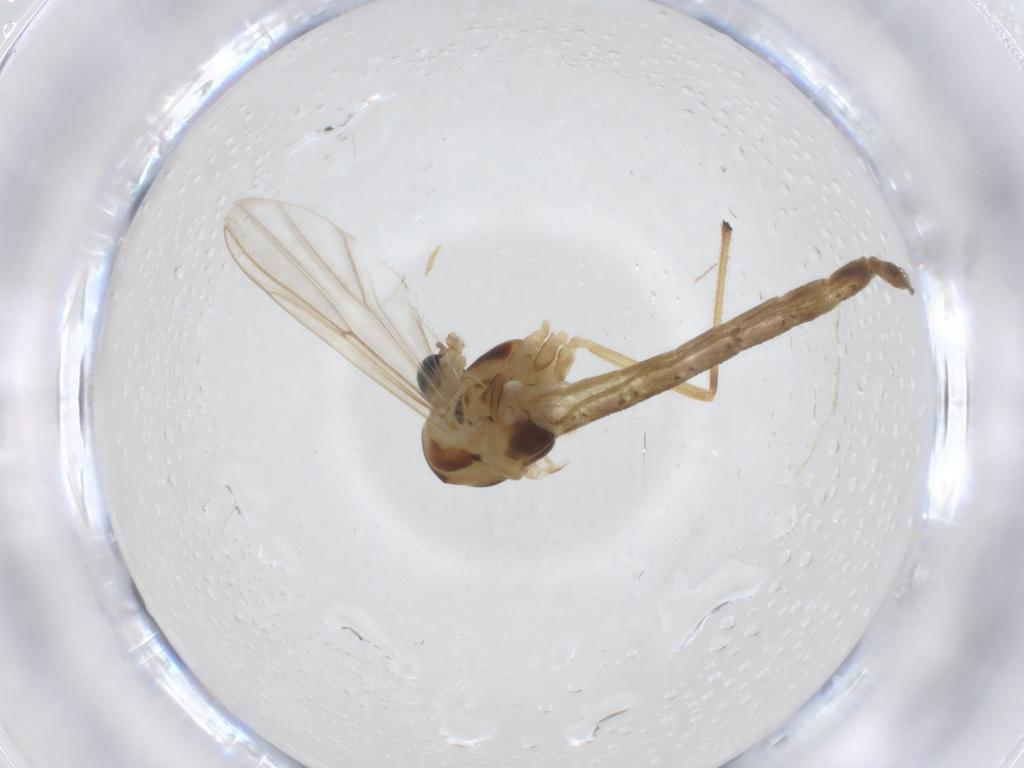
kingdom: Animalia
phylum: Arthropoda
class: Insecta
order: Diptera
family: Chironomidae
